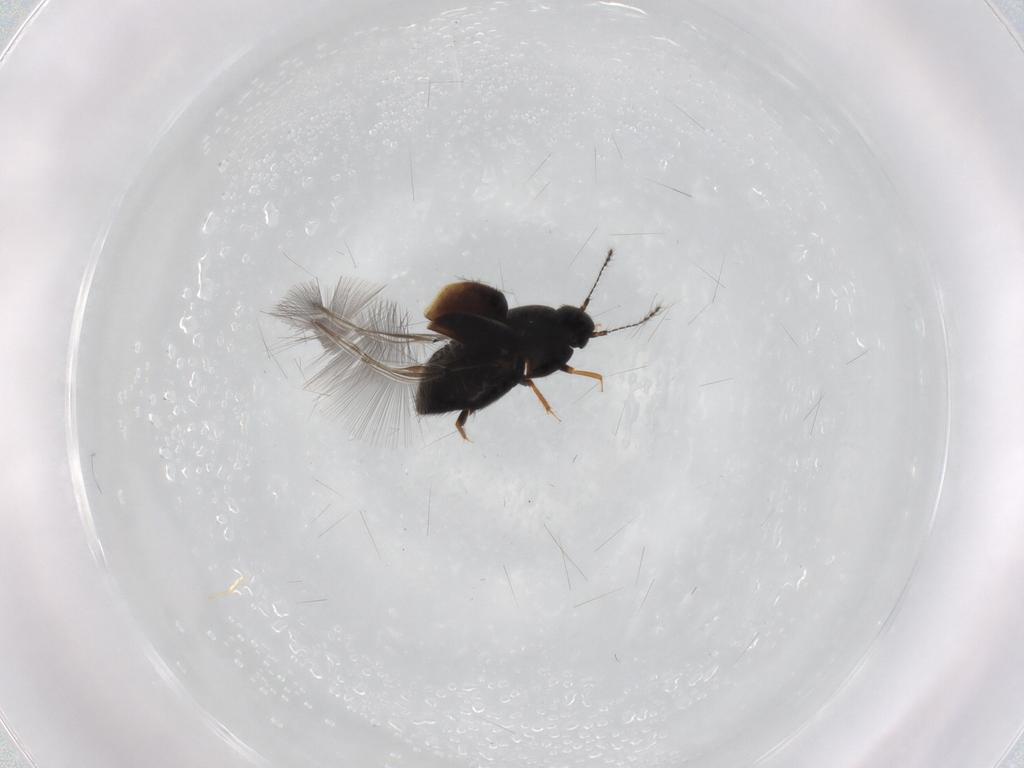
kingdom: Animalia
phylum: Arthropoda
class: Insecta
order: Coleoptera
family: Ptiliidae
